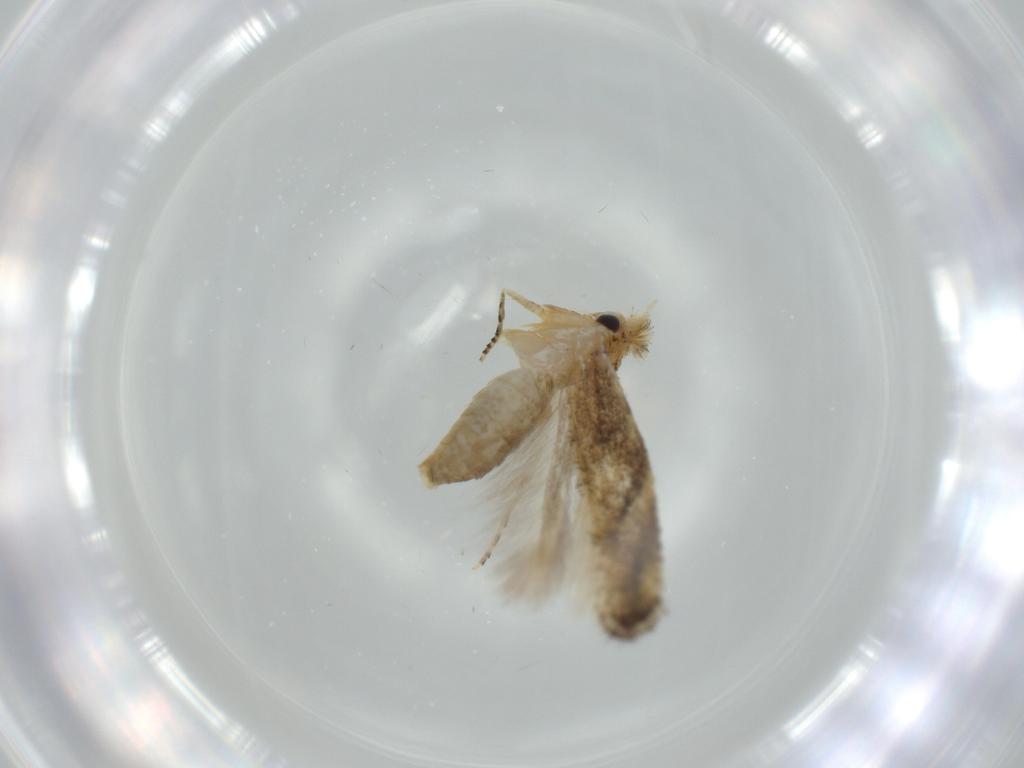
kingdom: Animalia
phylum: Arthropoda
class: Insecta
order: Lepidoptera
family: Bucculatricidae
